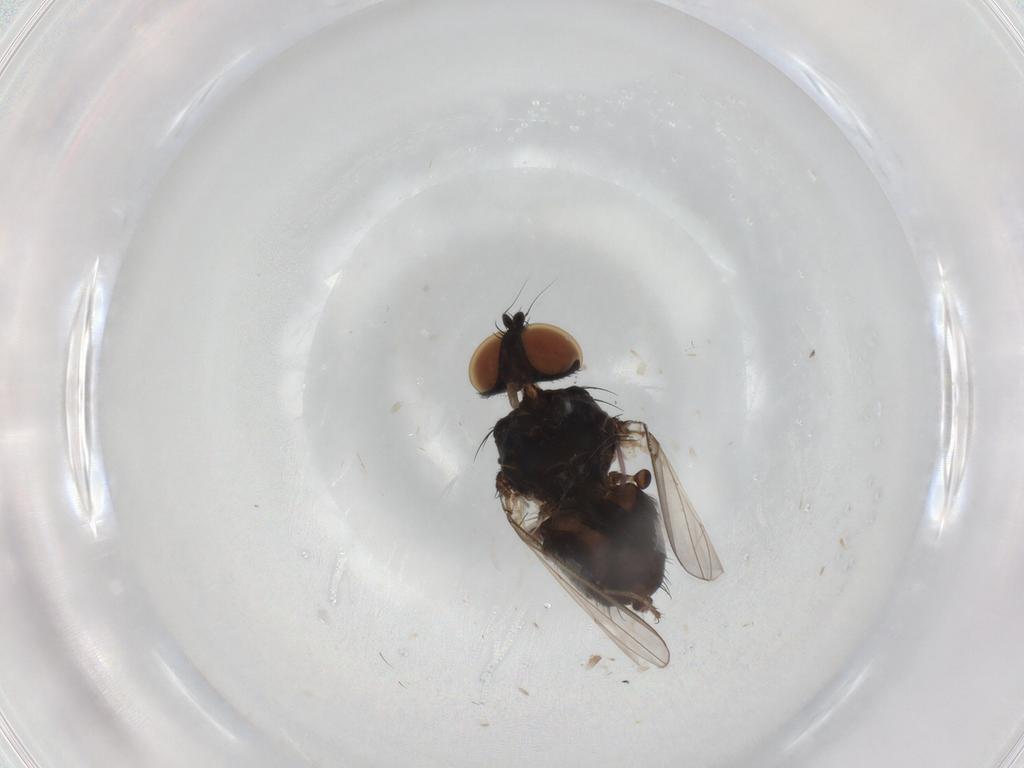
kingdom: Animalia
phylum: Arthropoda
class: Insecta
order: Diptera
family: Milichiidae
